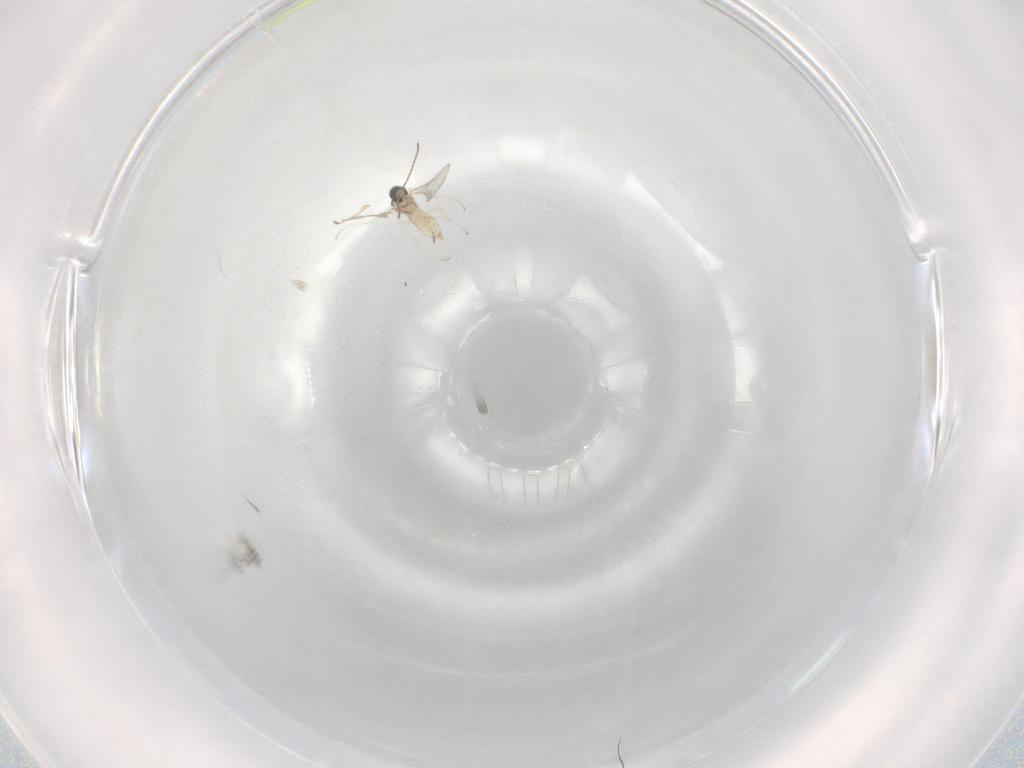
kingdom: Animalia
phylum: Arthropoda
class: Insecta
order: Diptera
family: Cecidomyiidae
